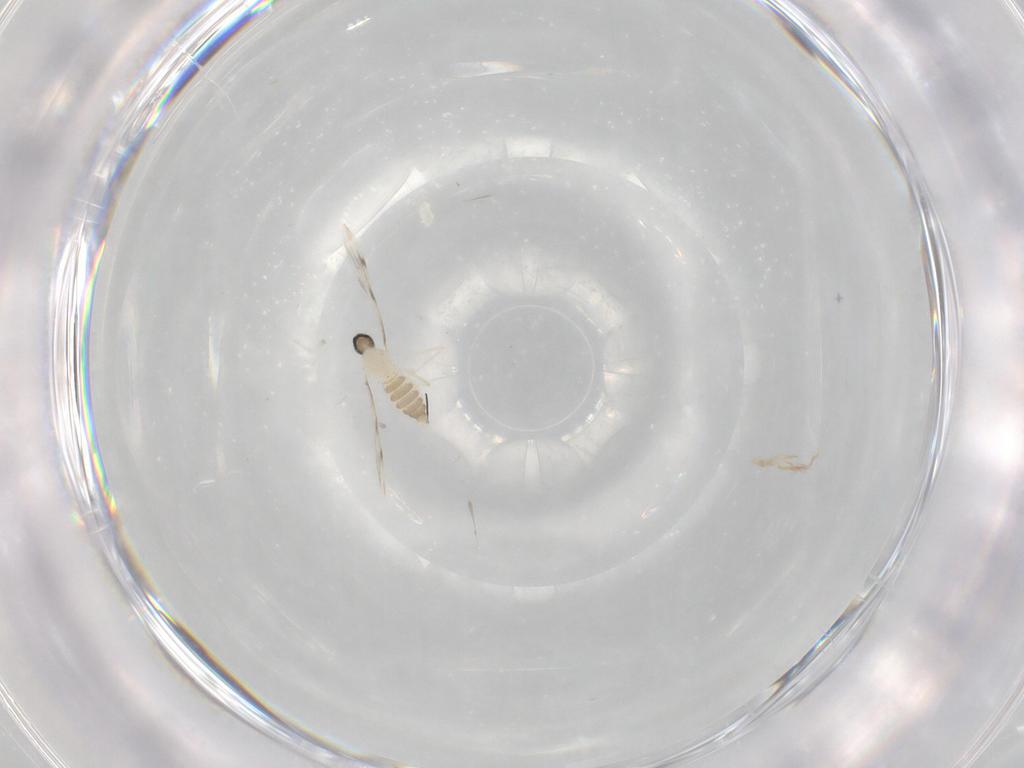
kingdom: Animalia
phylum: Arthropoda
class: Insecta
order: Diptera
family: Cecidomyiidae
